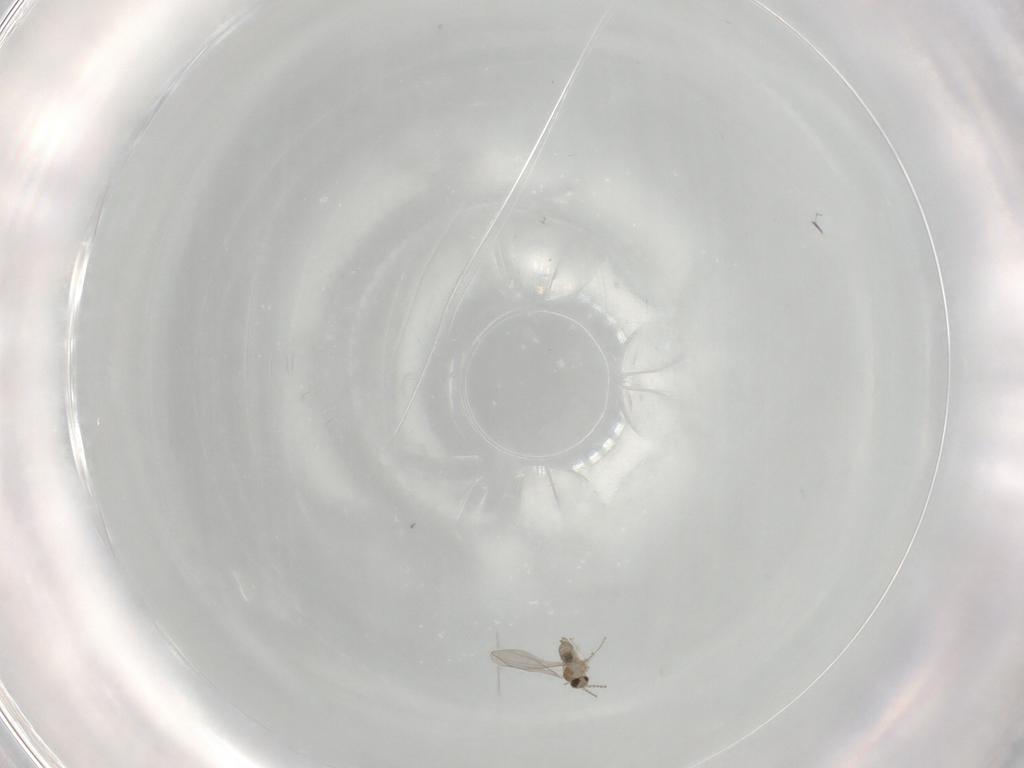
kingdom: Animalia
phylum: Arthropoda
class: Insecta
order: Diptera
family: Cecidomyiidae
